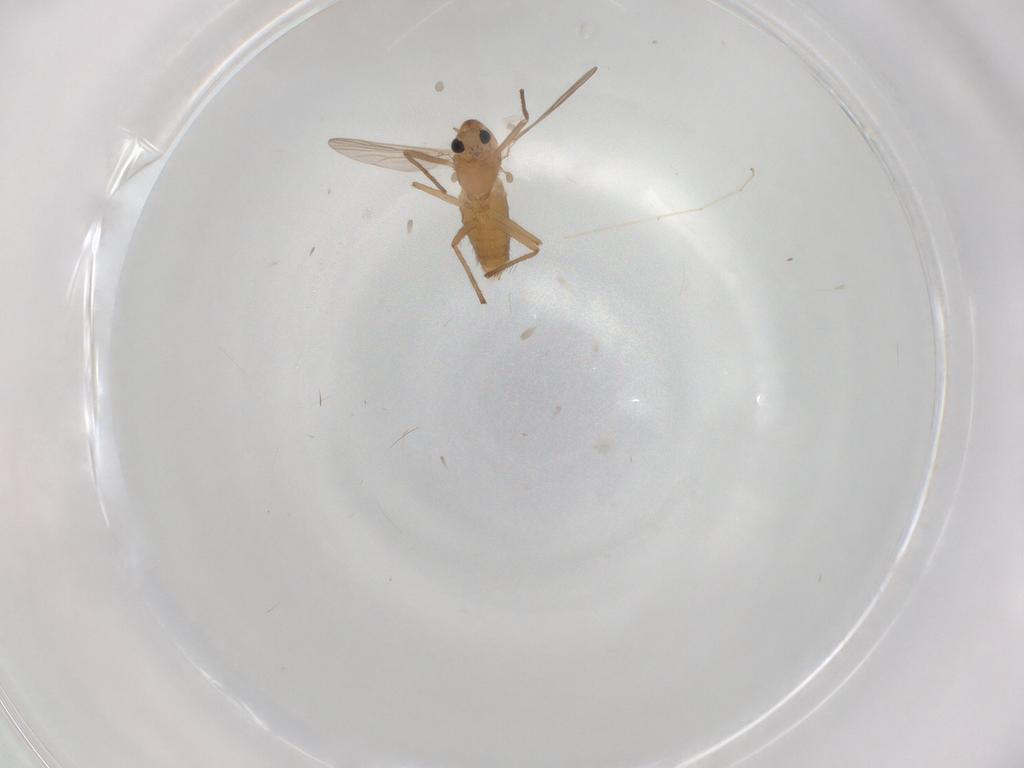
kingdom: Animalia
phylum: Arthropoda
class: Insecta
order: Diptera
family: Chironomidae
